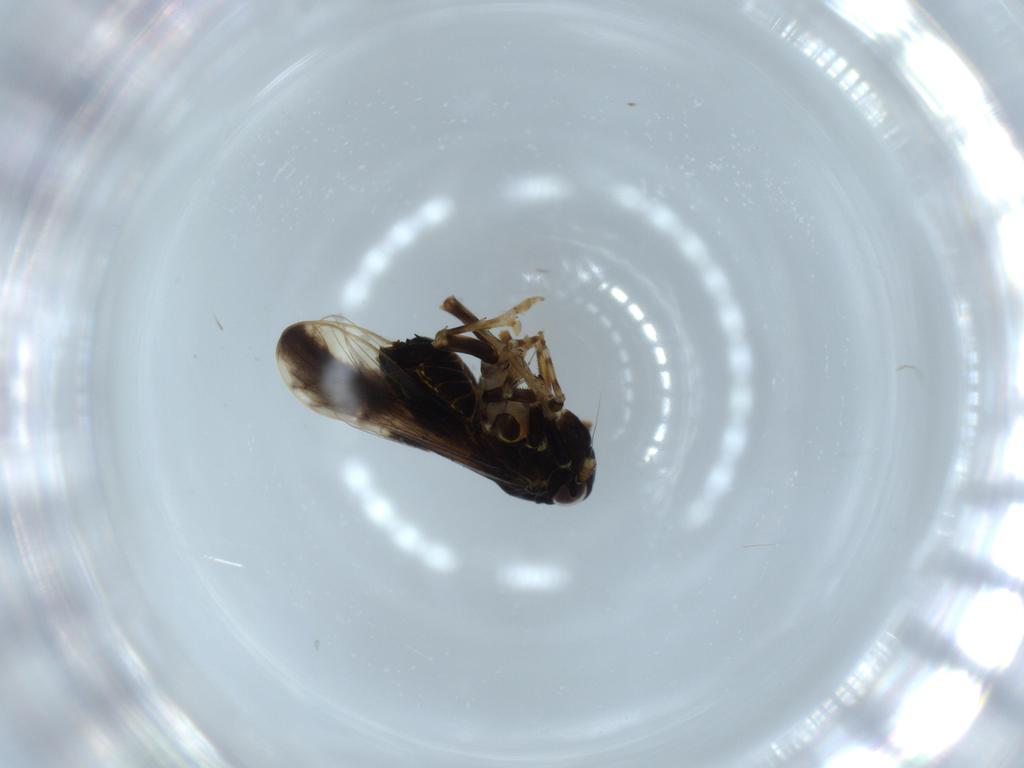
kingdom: Animalia
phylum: Arthropoda
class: Insecta
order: Hemiptera
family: Delphacidae
